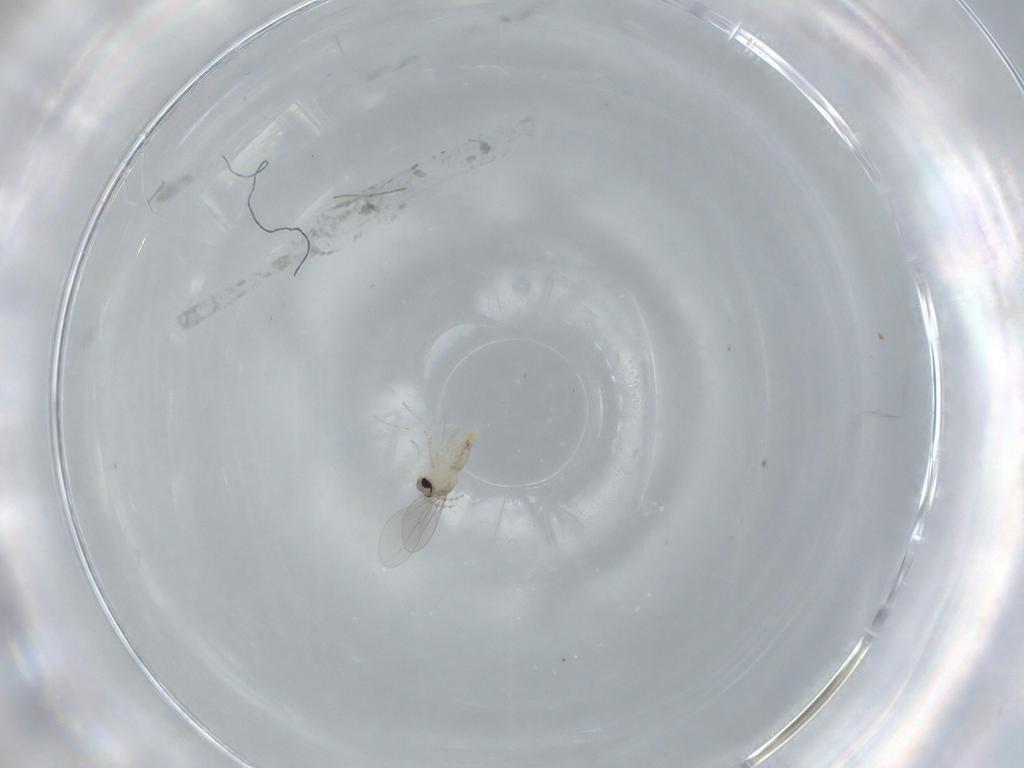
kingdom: Animalia
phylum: Arthropoda
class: Insecta
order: Diptera
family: Cecidomyiidae
